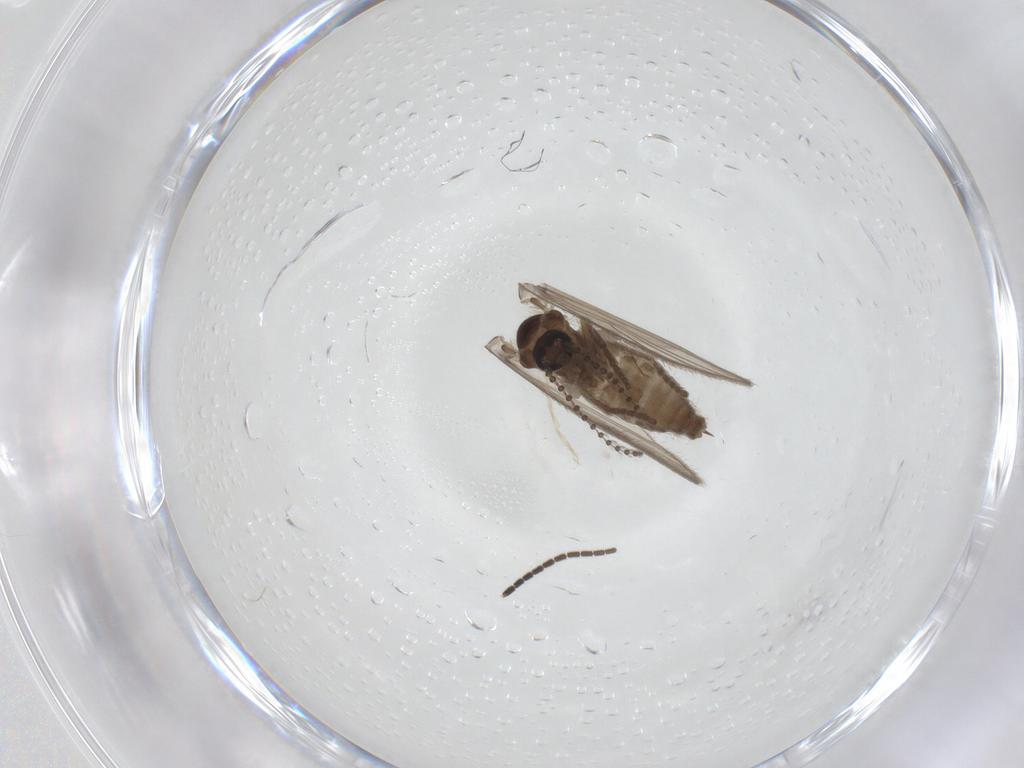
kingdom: Animalia
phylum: Arthropoda
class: Insecta
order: Diptera
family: Psychodidae
